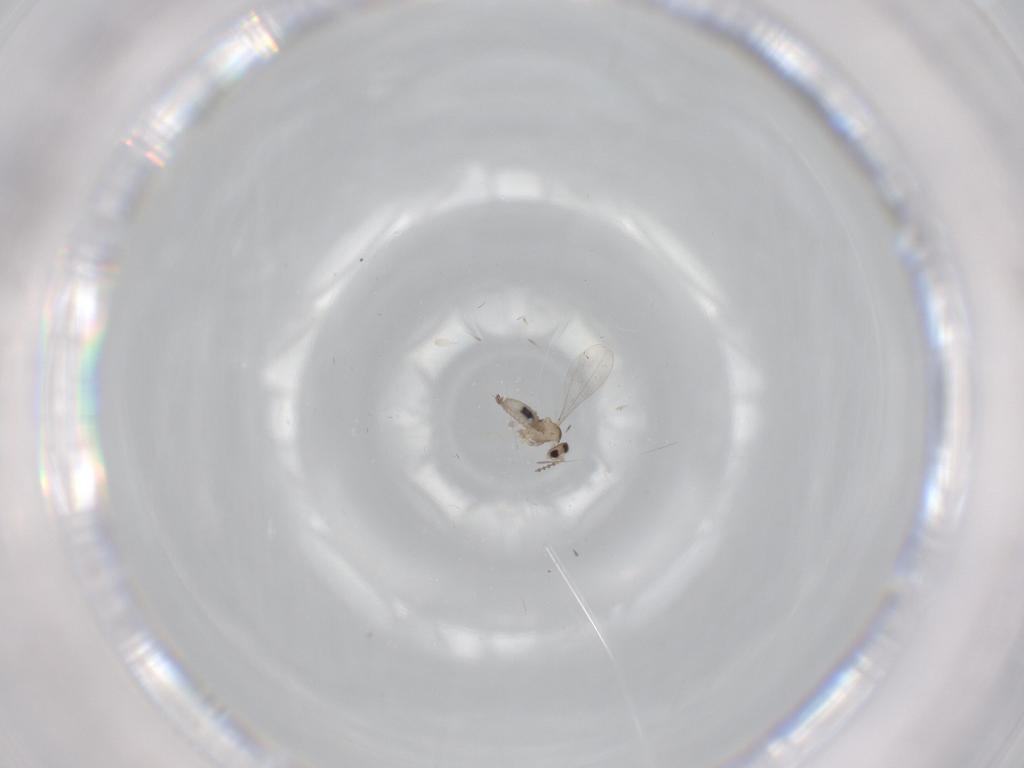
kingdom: Animalia
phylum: Arthropoda
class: Insecta
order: Diptera
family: Cecidomyiidae
